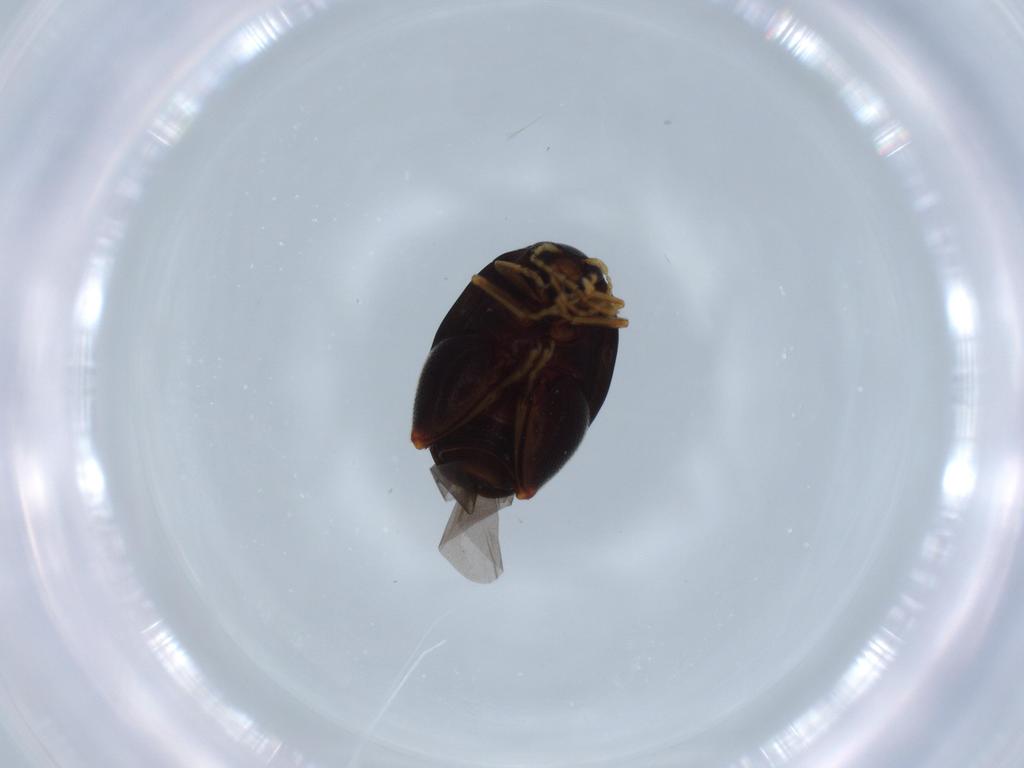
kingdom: Animalia
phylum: Arthropoda
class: Insecta
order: Coleoptera
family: Chrysomelidae
